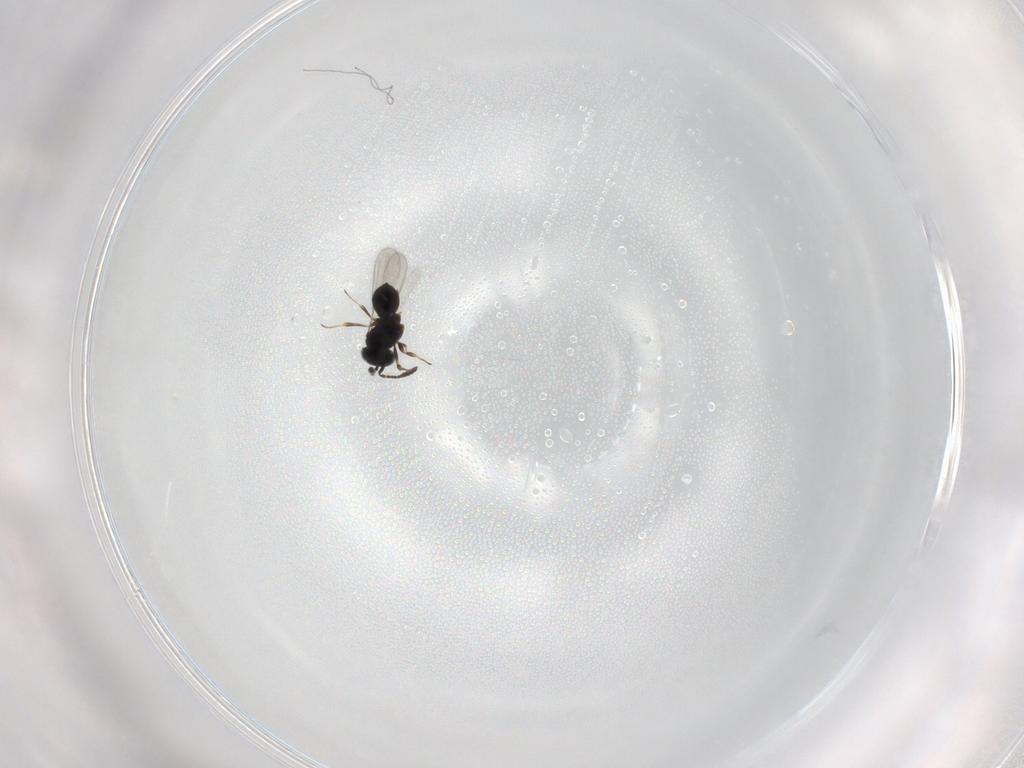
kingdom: Animalia
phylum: Arthropoda
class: Insecta
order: Hymenoptera
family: Scelionidae
